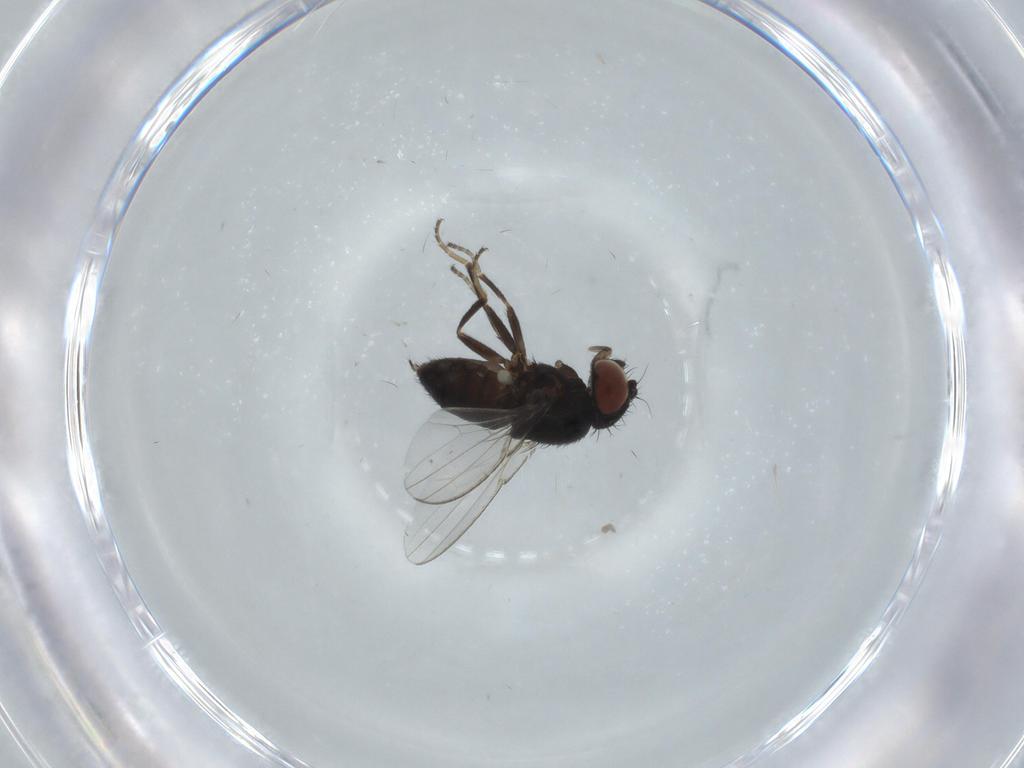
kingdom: Animalia
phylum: Arthropoda
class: Insecta
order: Diptera
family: Milichiidae
